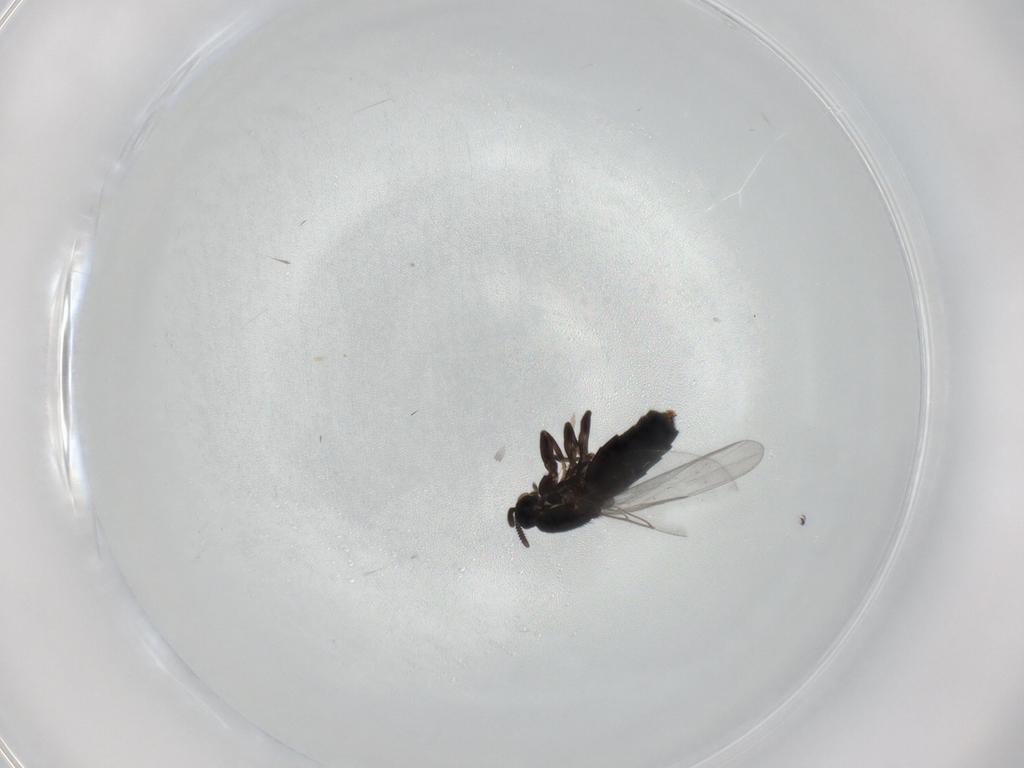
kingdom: Animalia
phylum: Arthropoda
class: Insecta
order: Diptera
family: Scatopsidae
